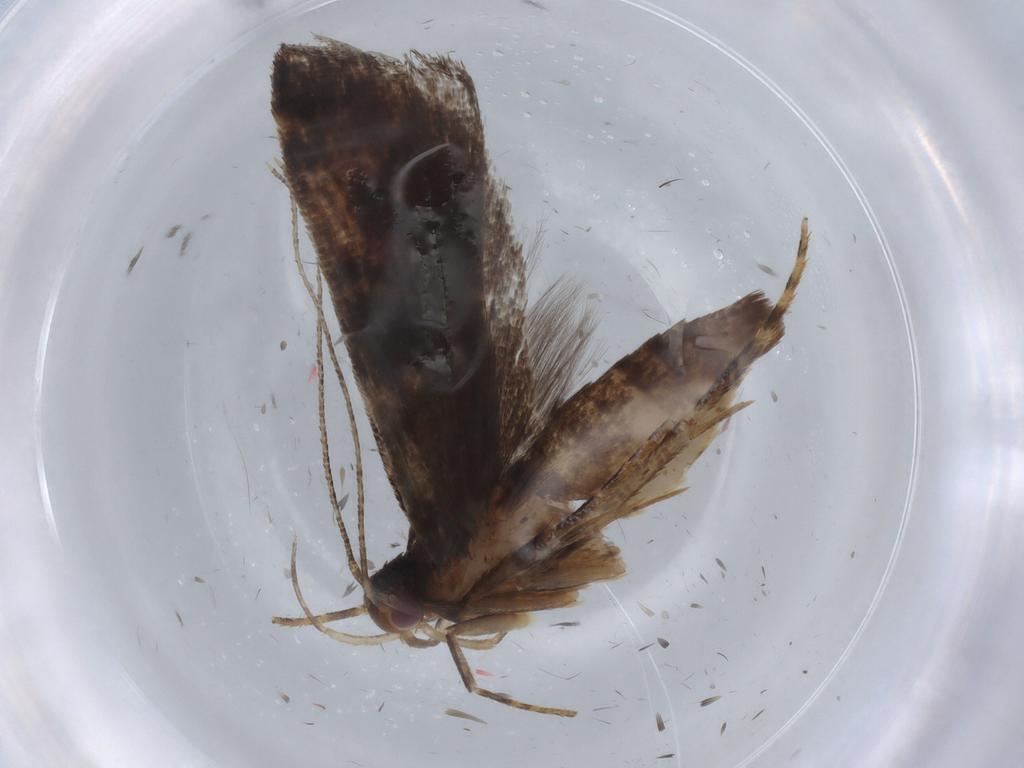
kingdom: Animalia
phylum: Arthropoda
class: Insecta
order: Lepidoptera
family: Gelechiidae
